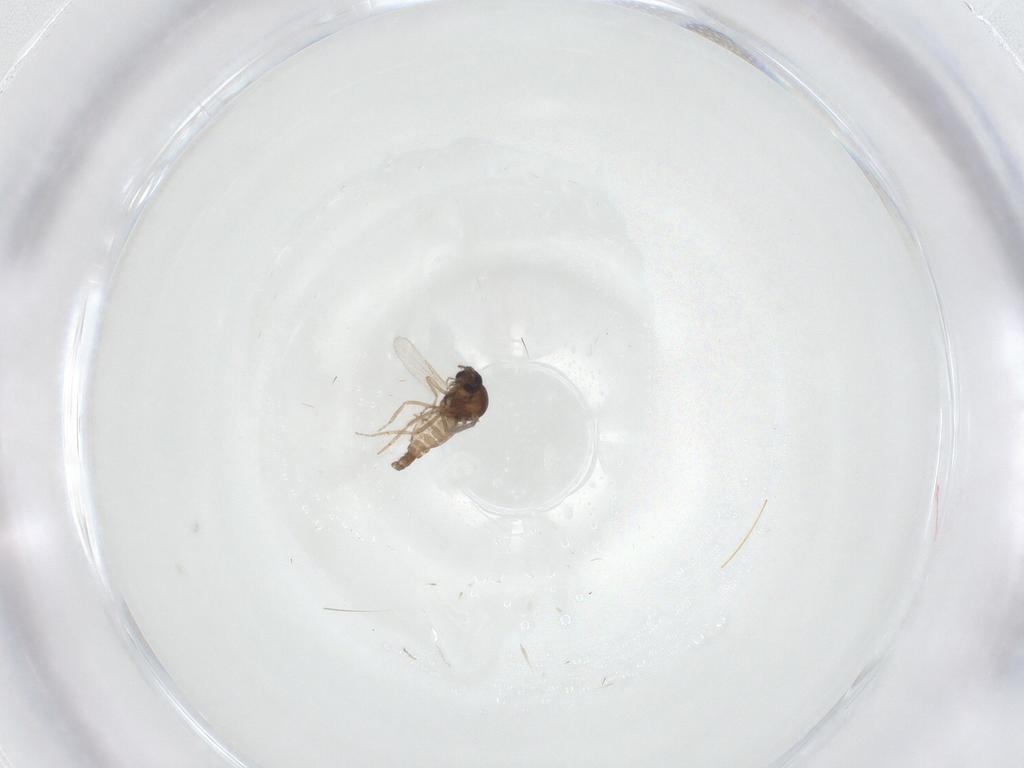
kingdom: Animalia
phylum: Arthropoda
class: Insecta
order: Diptera
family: Ceratopogonidae
